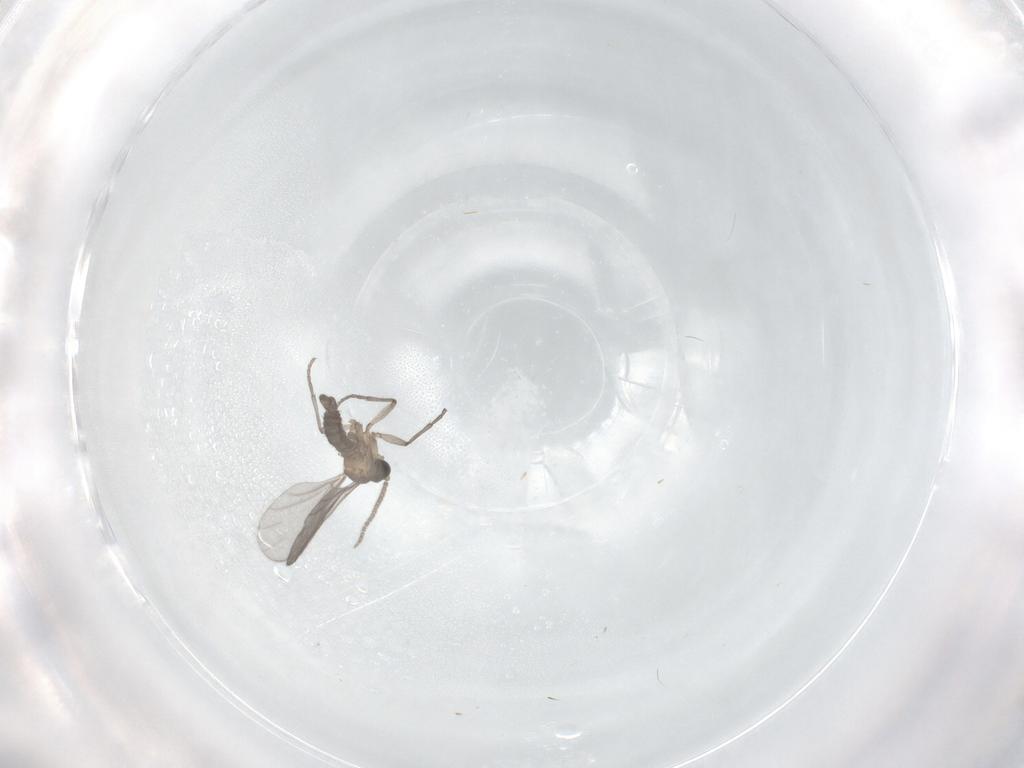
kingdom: Animalia
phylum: Arthropoda
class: Insecta
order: Diptera
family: Sciaridae
